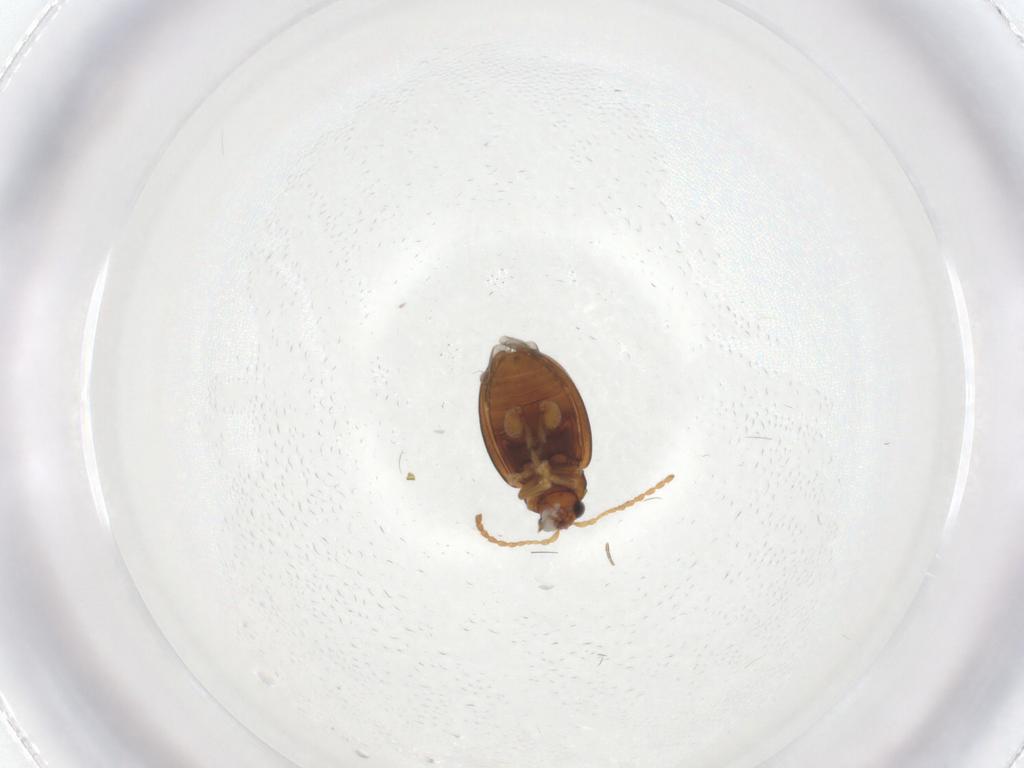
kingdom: Animalia
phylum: Arthropoda
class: Insecta
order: Coleoptera
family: Chrysomelidae
